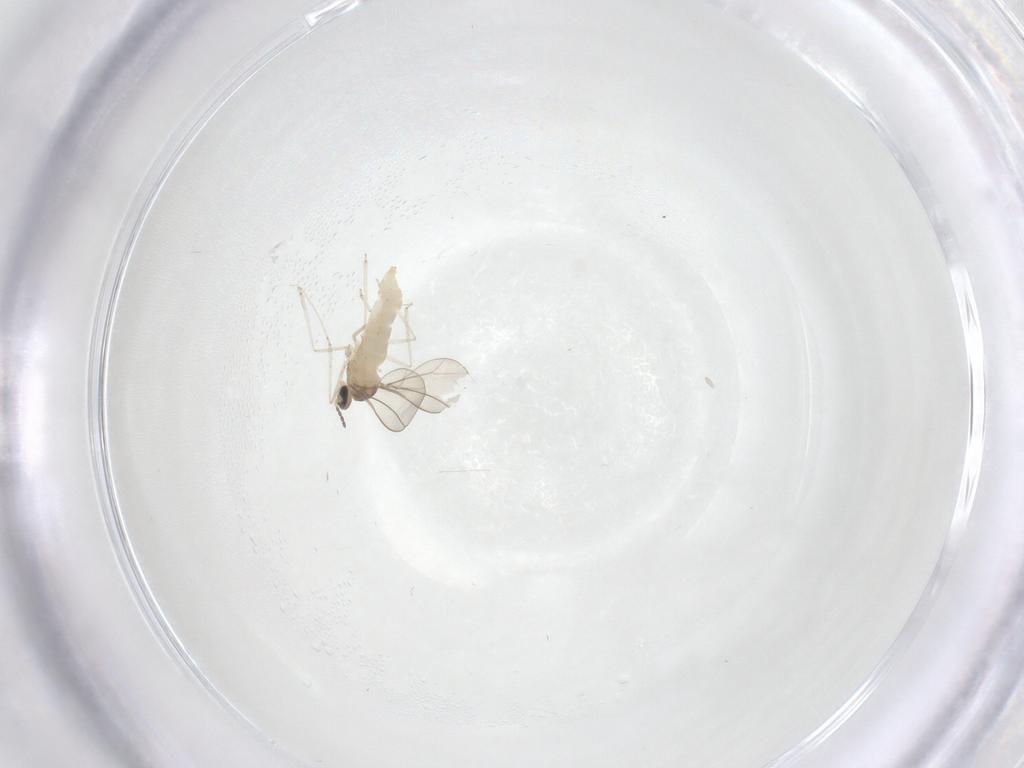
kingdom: Animalia
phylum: Arthropoda
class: Insecta
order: Diptera
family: Cecidomyiidae
